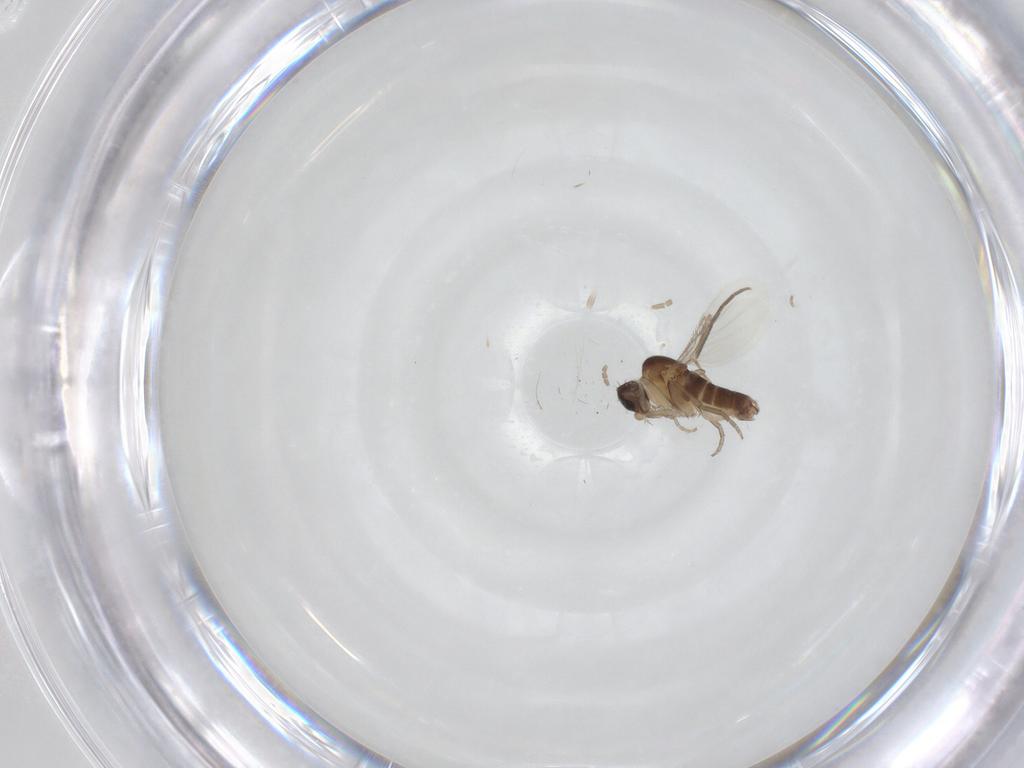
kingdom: Animalia
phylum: Arthropoda
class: Insecta
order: Diptera
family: Phoridae
